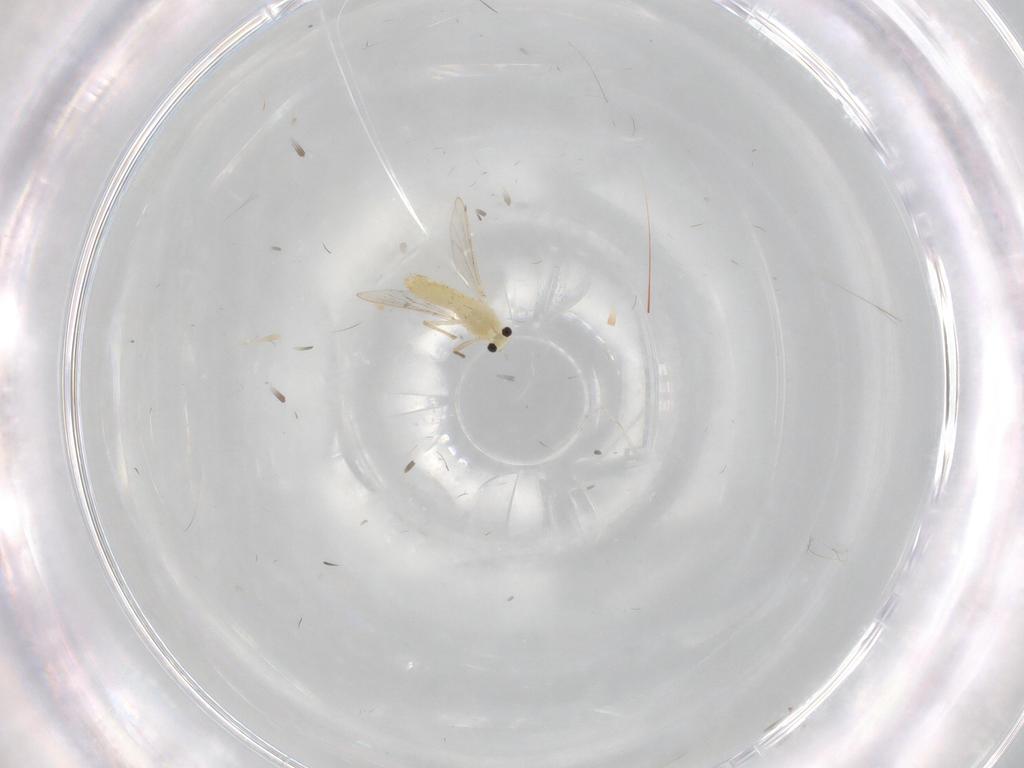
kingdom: Animalia
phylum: Arthropoda
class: Insecta
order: Diptera
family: Chironomidae
